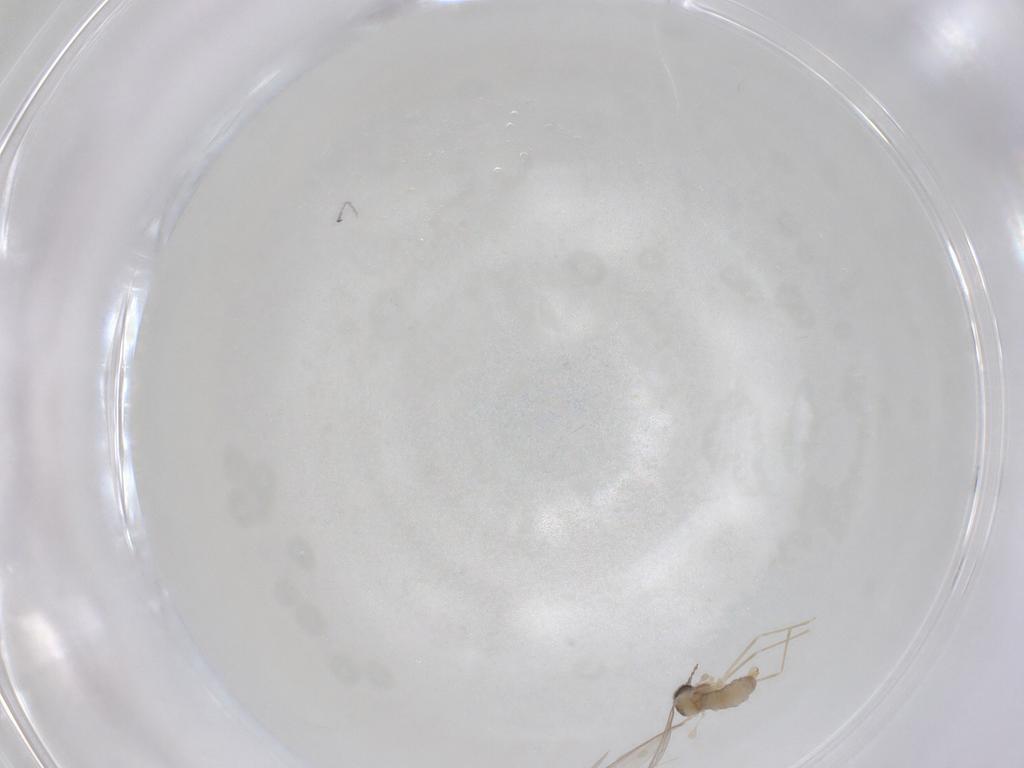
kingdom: Animalia
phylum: Arthropoda
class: Insecta
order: Diptera
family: Cecidomyiidae
